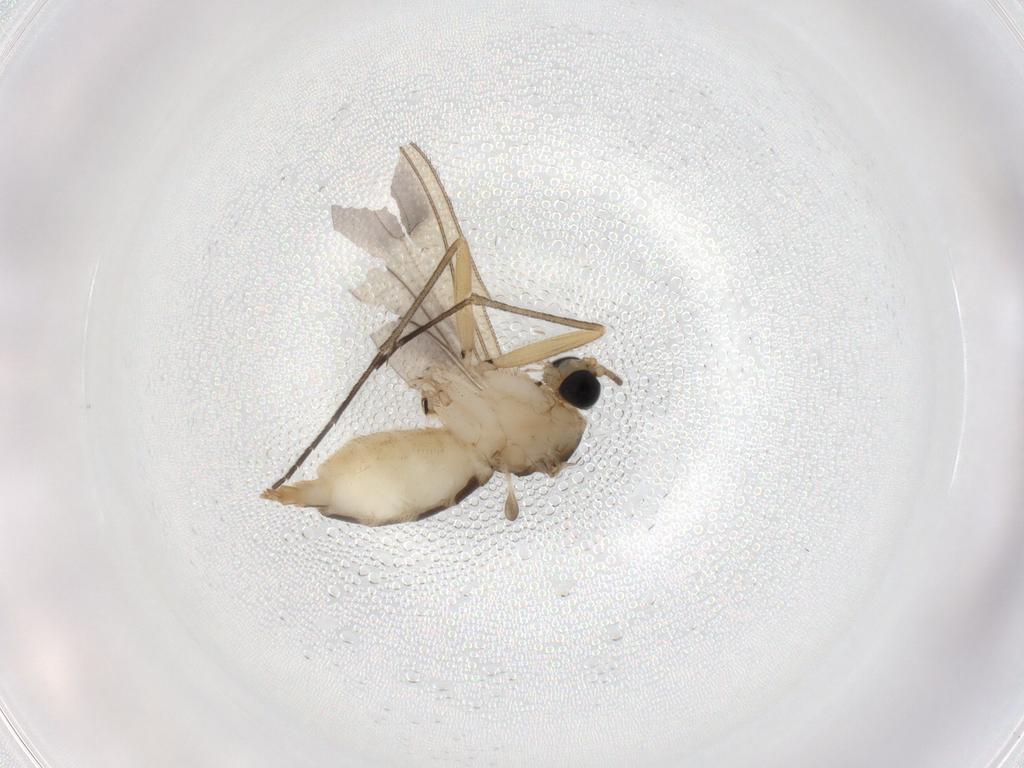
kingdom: Animalia
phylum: Arthropoda
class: Insecta
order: Diptera
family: Sciaridae
